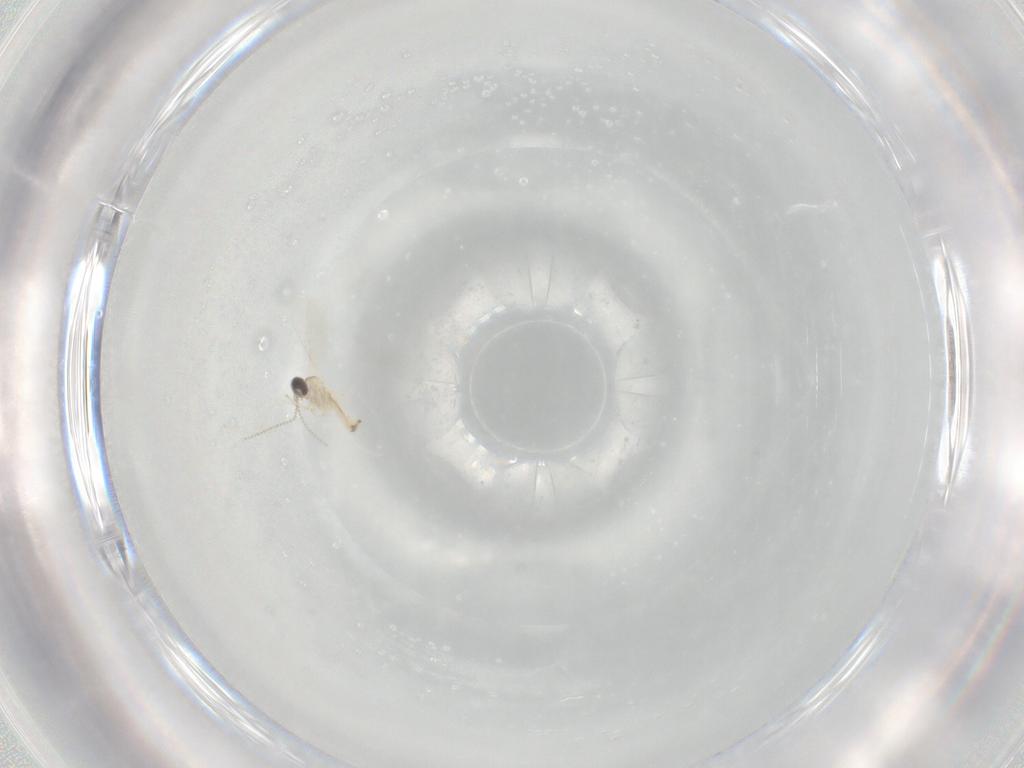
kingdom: Animalia
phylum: Arthropoda
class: Insecta
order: Diptera
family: Cecidomyiidae
